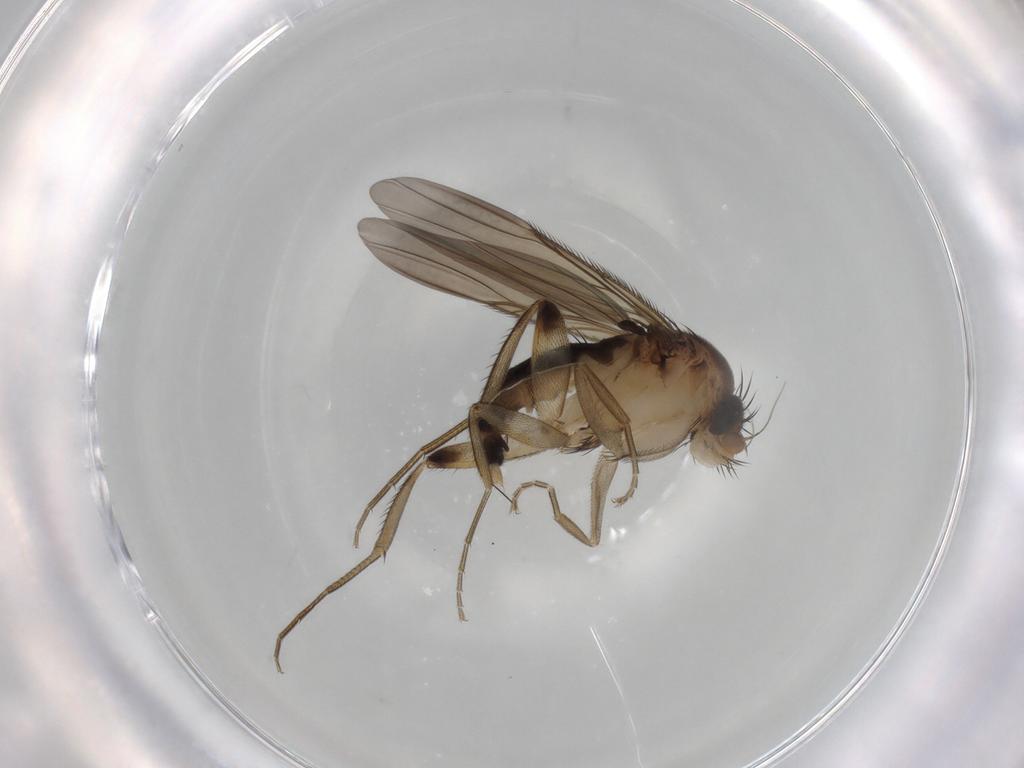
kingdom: Animalia
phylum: Arthropoda
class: Insecta
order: Diptera
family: Phoridae
